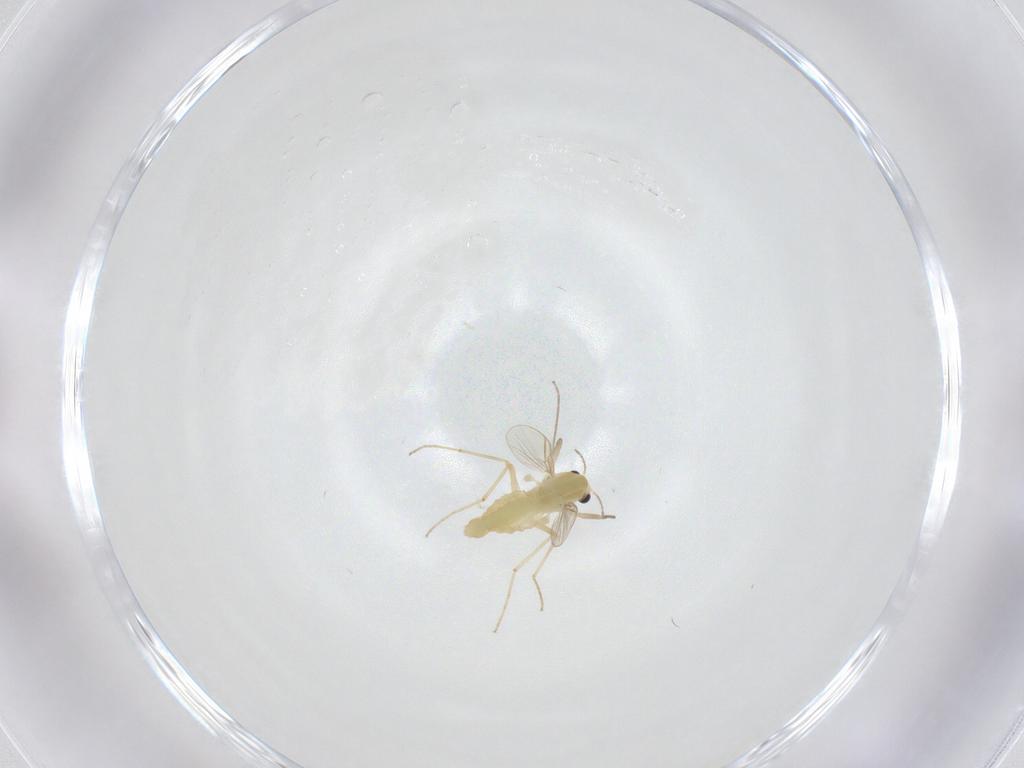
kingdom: Animalia
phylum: Arthropoda
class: Insecta
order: Diptera
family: Chironomidae
